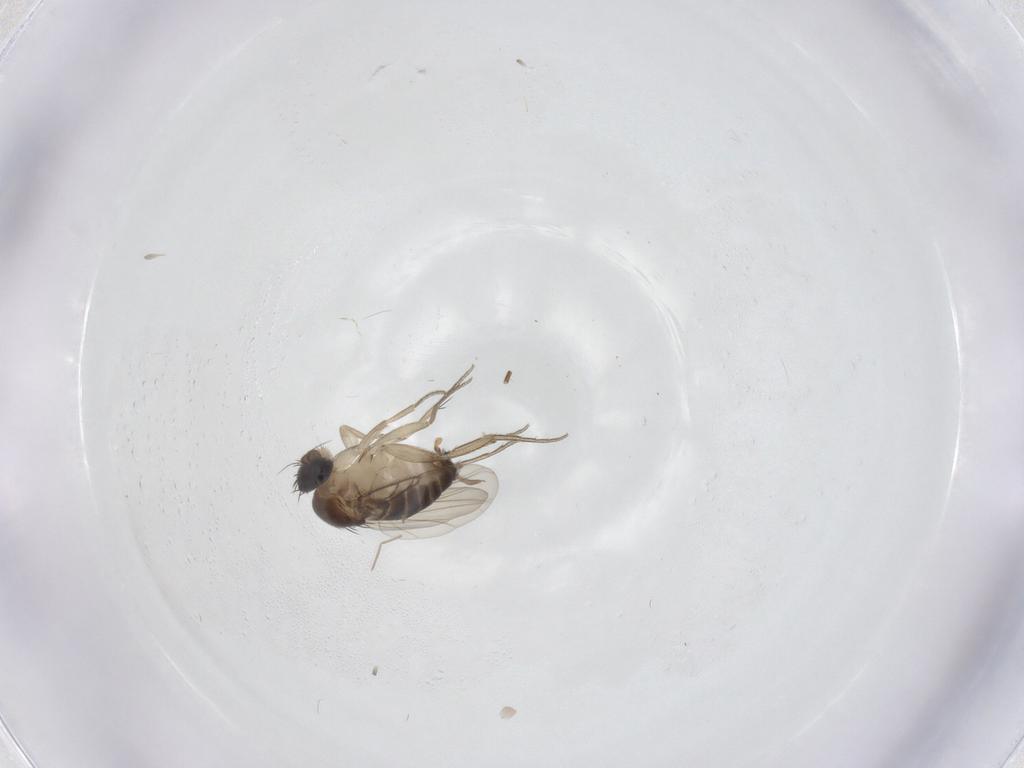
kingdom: Animalia
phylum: Arthropoda
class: Insecta
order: Diptera
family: Cecidomyiidae
